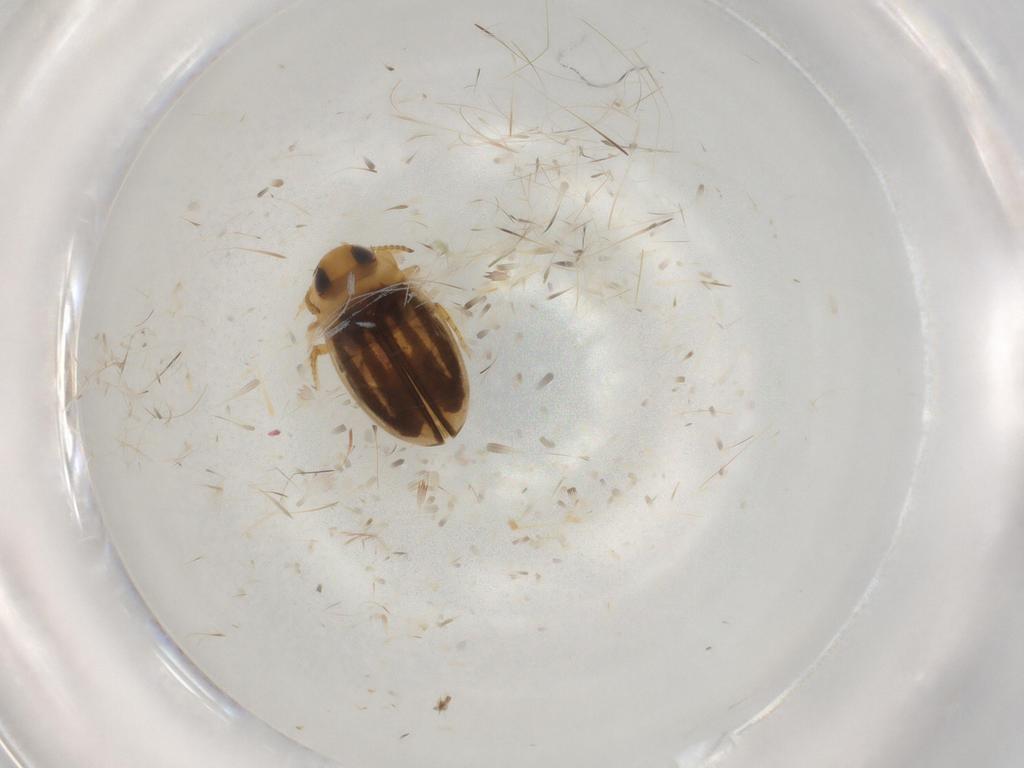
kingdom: Animalia
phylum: Arthropoda
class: Insecta
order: Coleoptera
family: Dytiscidae
